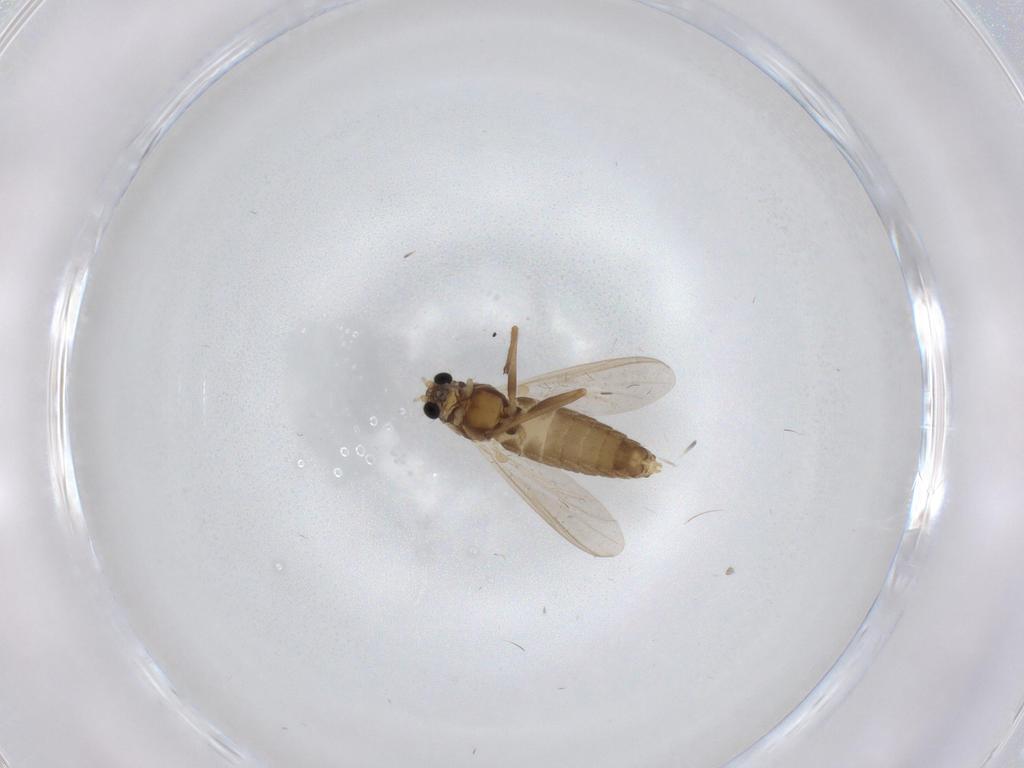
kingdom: Animalia
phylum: Arthropoda
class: Insecta
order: Diptera
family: Chironomidae
